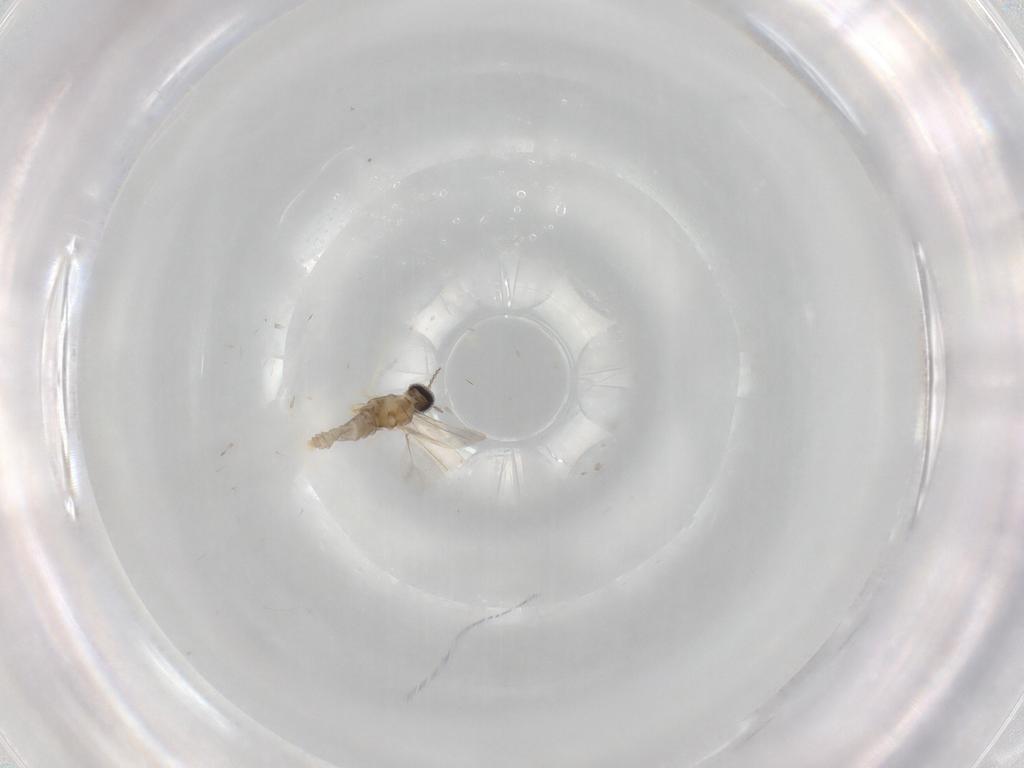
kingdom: Animalia
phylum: Arthropoda
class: Insecta
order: Diptera
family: Cecidomyiidae
